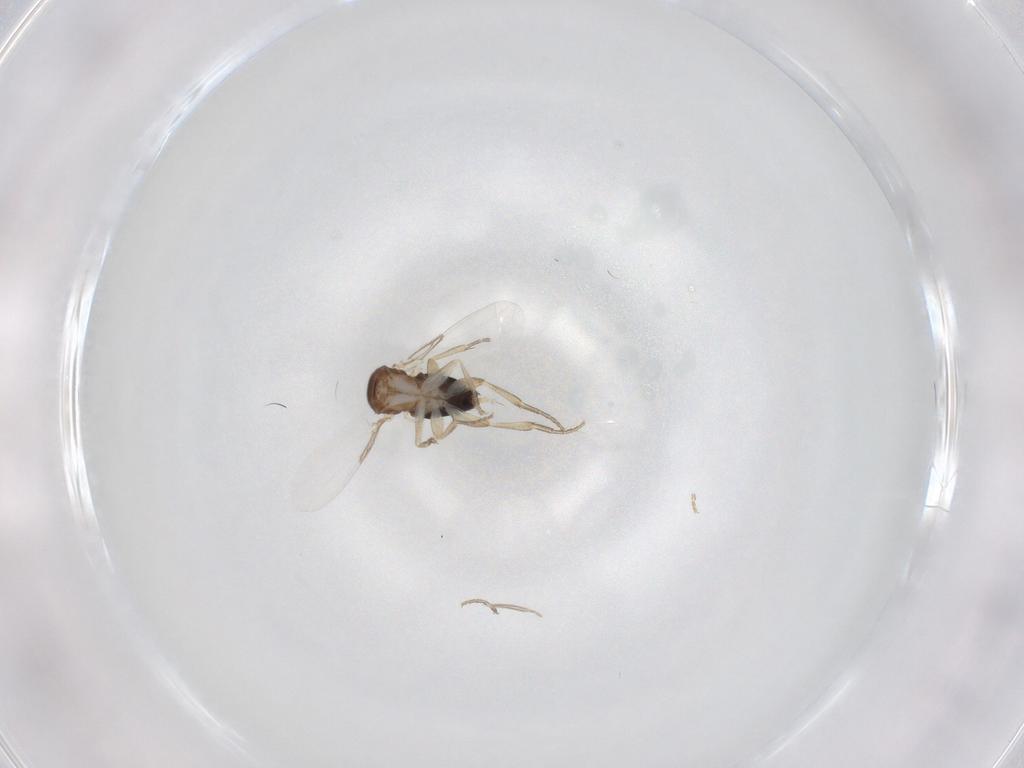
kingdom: Animalia
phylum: Arthropoda
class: Insecta
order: Diptera
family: Ceratopogonidae
